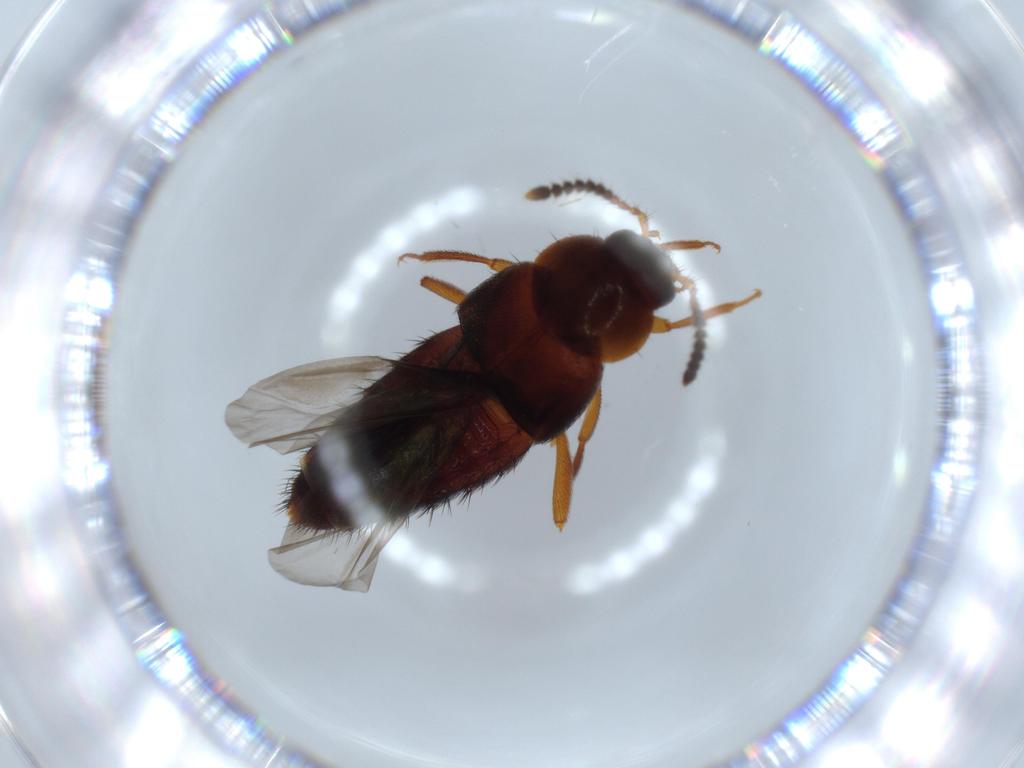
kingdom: Animalia
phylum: Arthropoda
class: Insecta
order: Coleoptera
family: Staphylinidae
